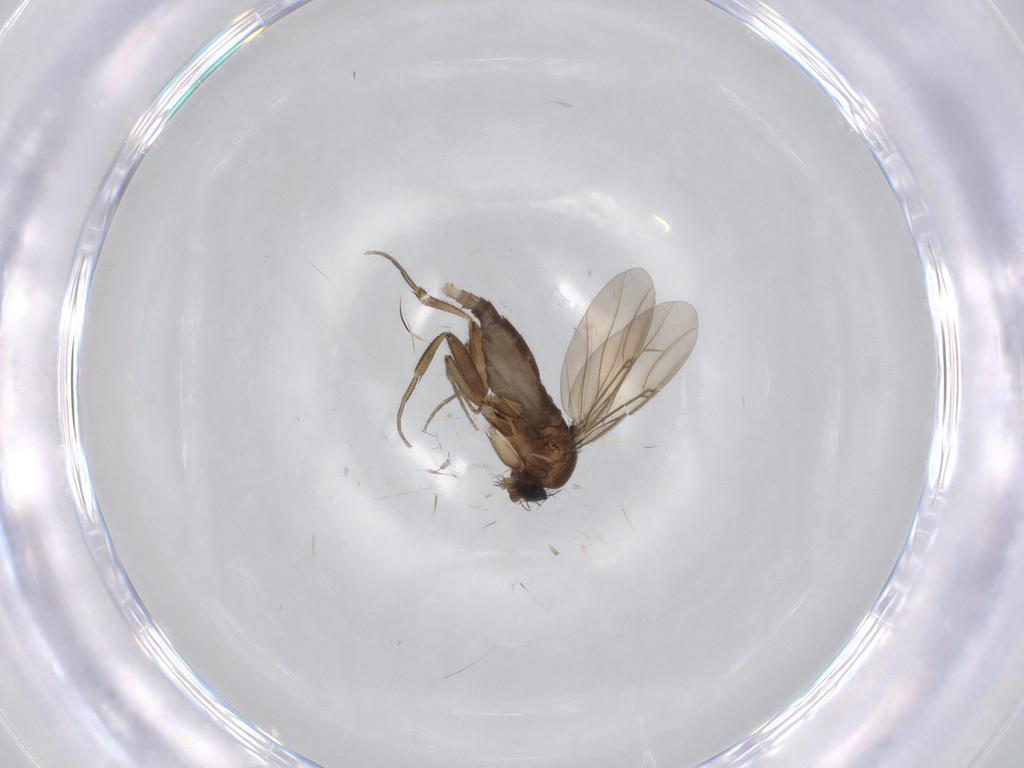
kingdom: Animalia
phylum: Arthropoda
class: Insecta
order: Diptera
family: Phoridae
